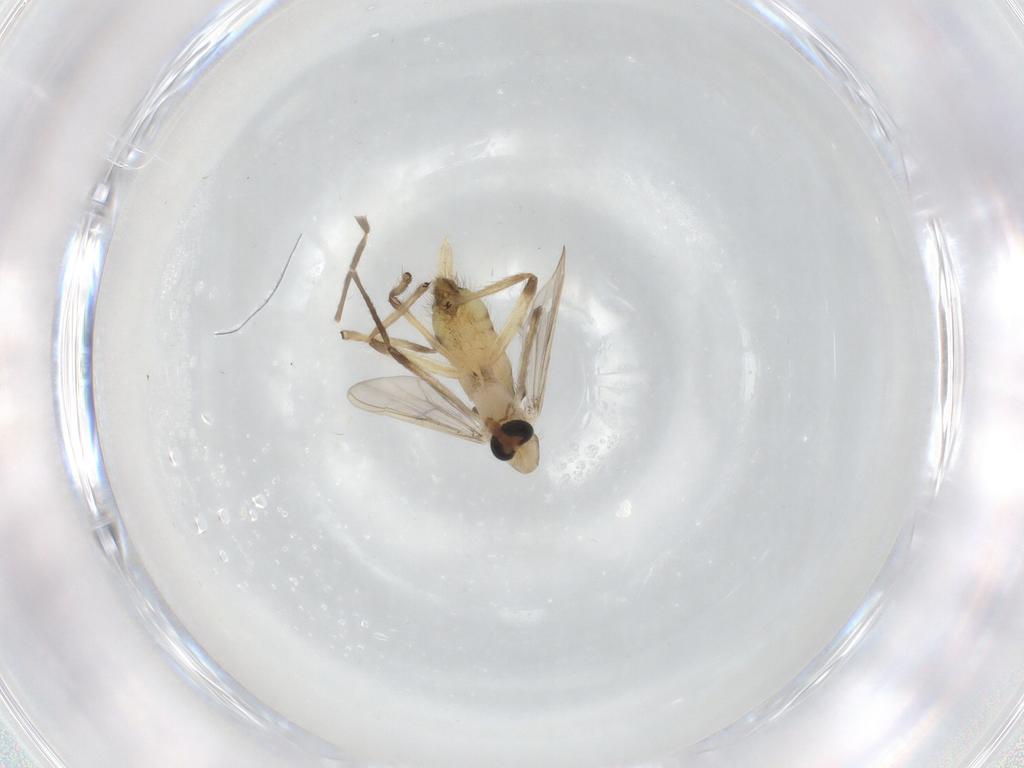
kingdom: Animalia
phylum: Arthropoda
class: Insecta
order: Diptera
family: Chironomidae
